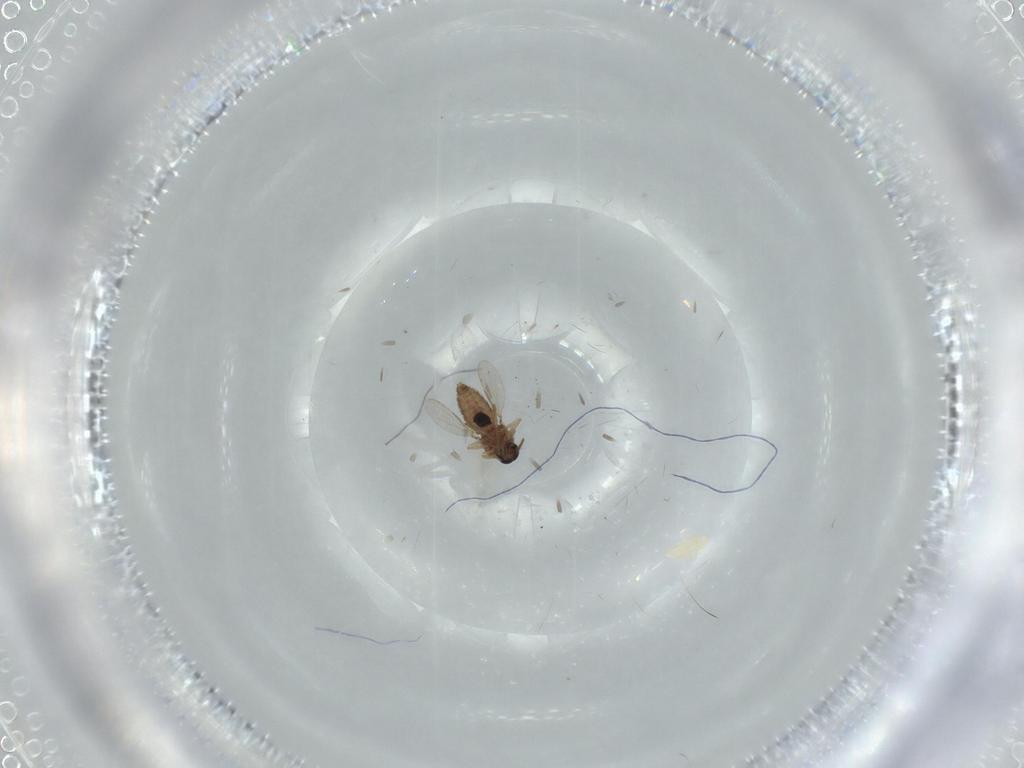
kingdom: Animalia
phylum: Arthropoda
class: Insecta
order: Diptera
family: Ceratopogonidae
